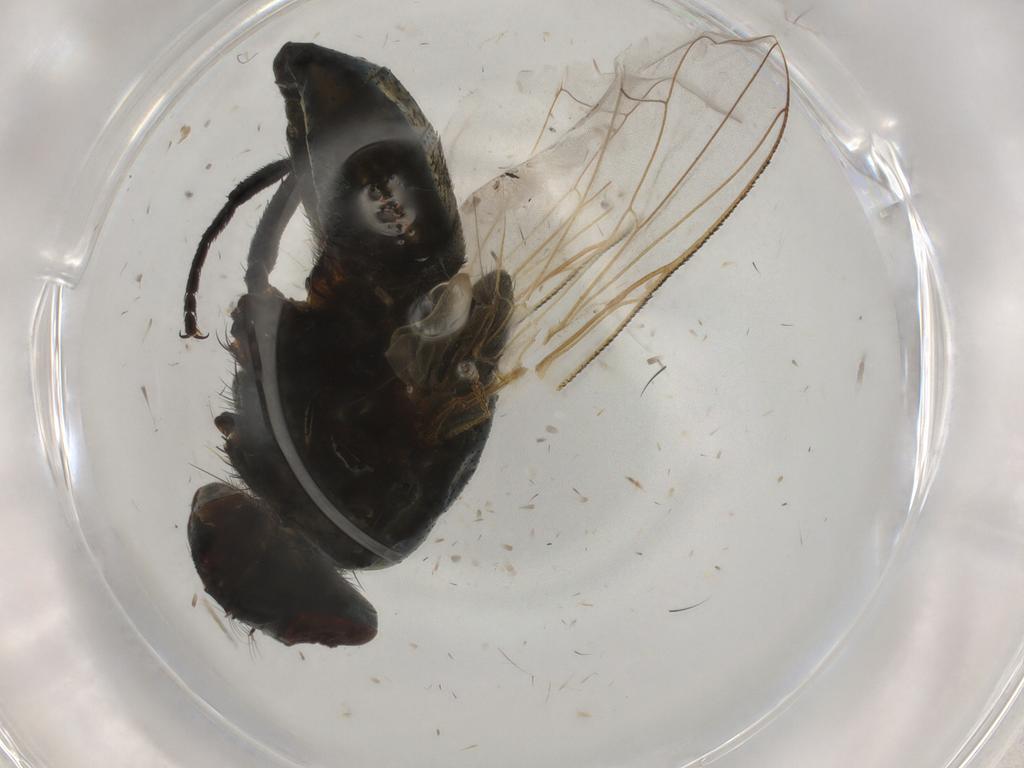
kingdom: Animalia
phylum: Arthropoda
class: Insecta
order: Diptera
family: Muscidae
